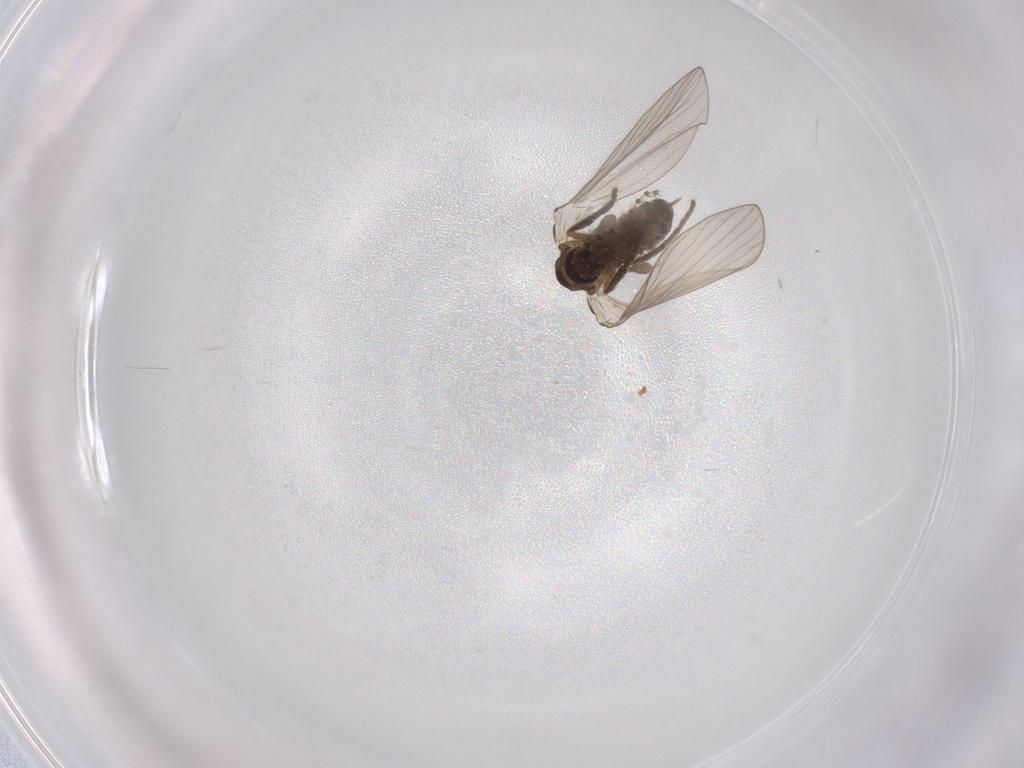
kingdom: Animalia
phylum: Arthropoda
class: Insecta
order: Diptera
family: Psychodidae
